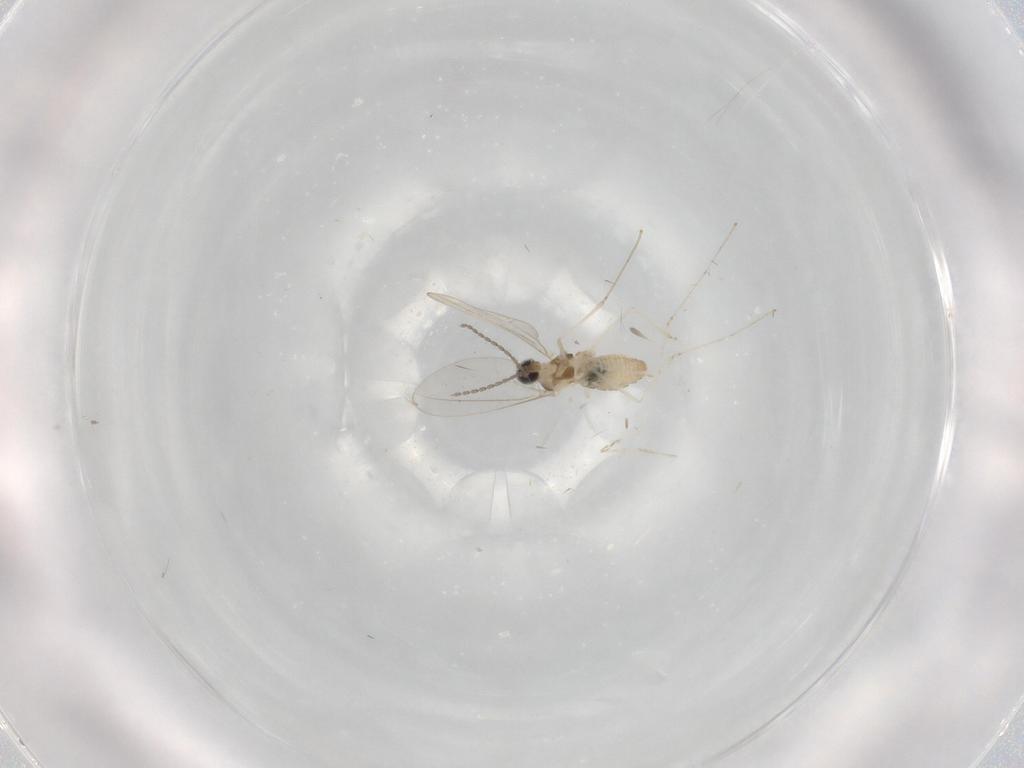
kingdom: Animalia
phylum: Arthropoda
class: Insecta
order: Diptera
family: Cecidomyiidae
